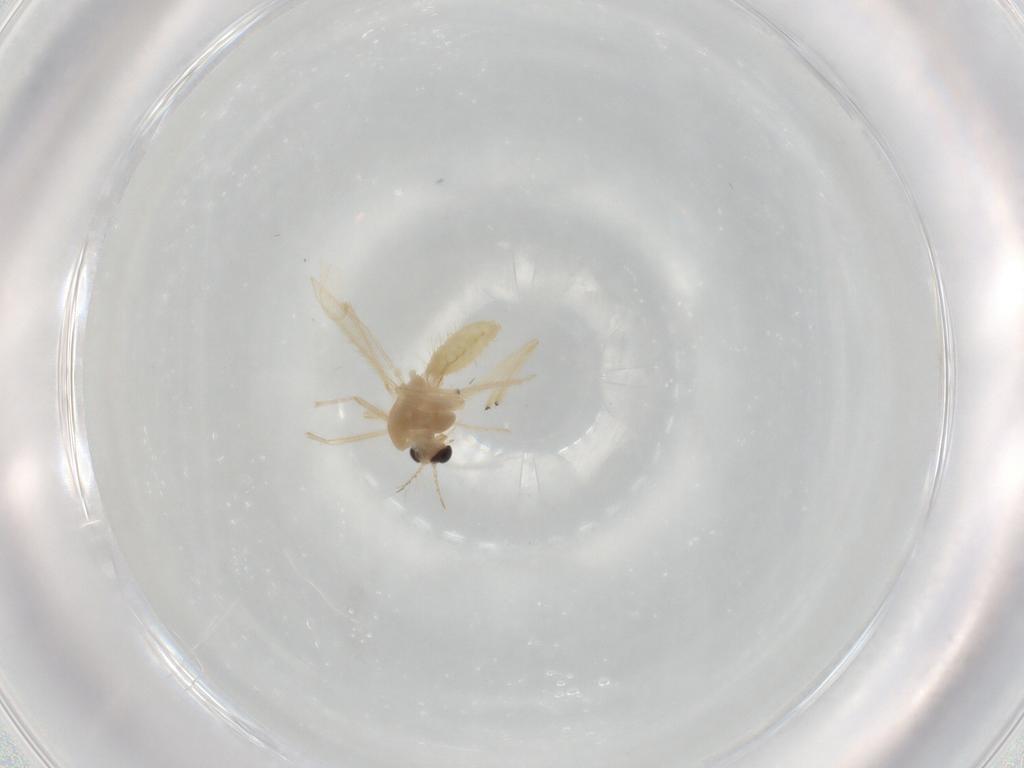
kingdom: Animalia
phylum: Arthropoda
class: Insecta
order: Diptera
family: Chironomidae
